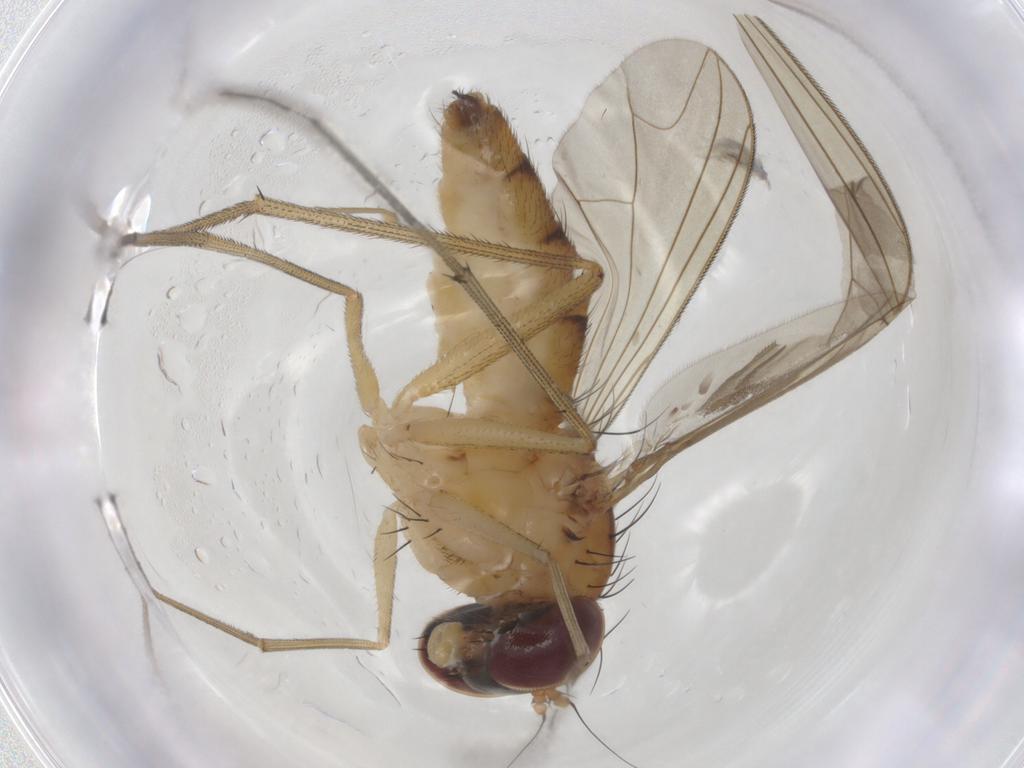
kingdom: Animalia
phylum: Arthropoda
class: Insecta
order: Diptera
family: Dolichopodidae
